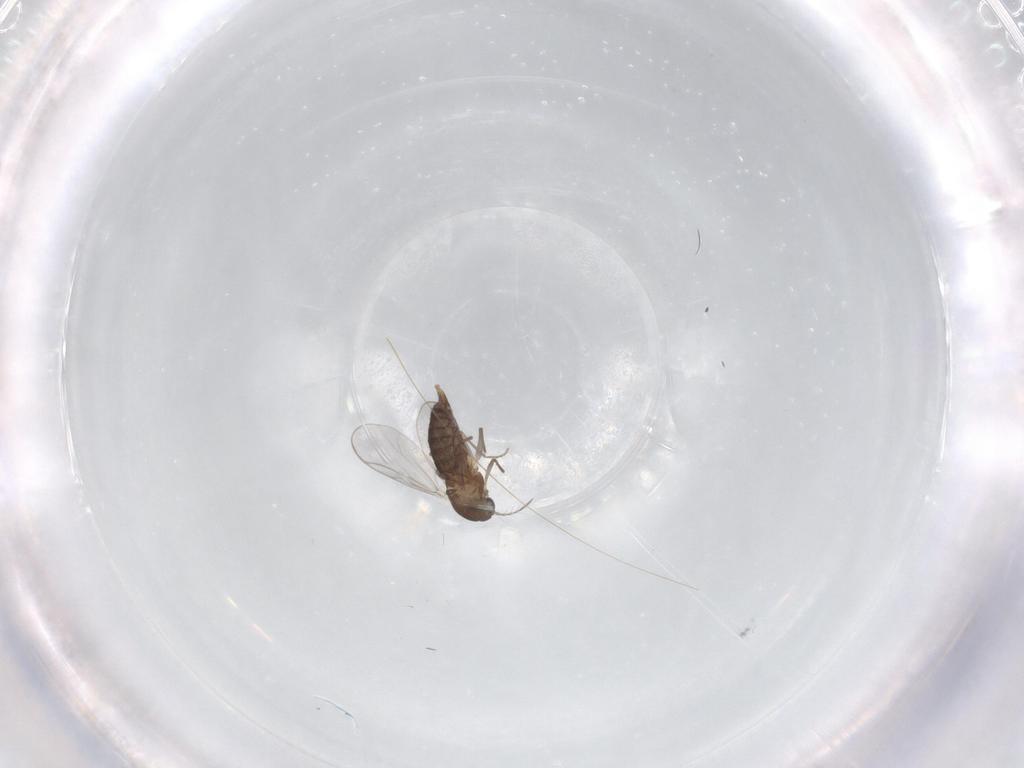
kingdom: Animalia
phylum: Arthropoda
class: Insecta
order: Diptera
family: Chironomidae
